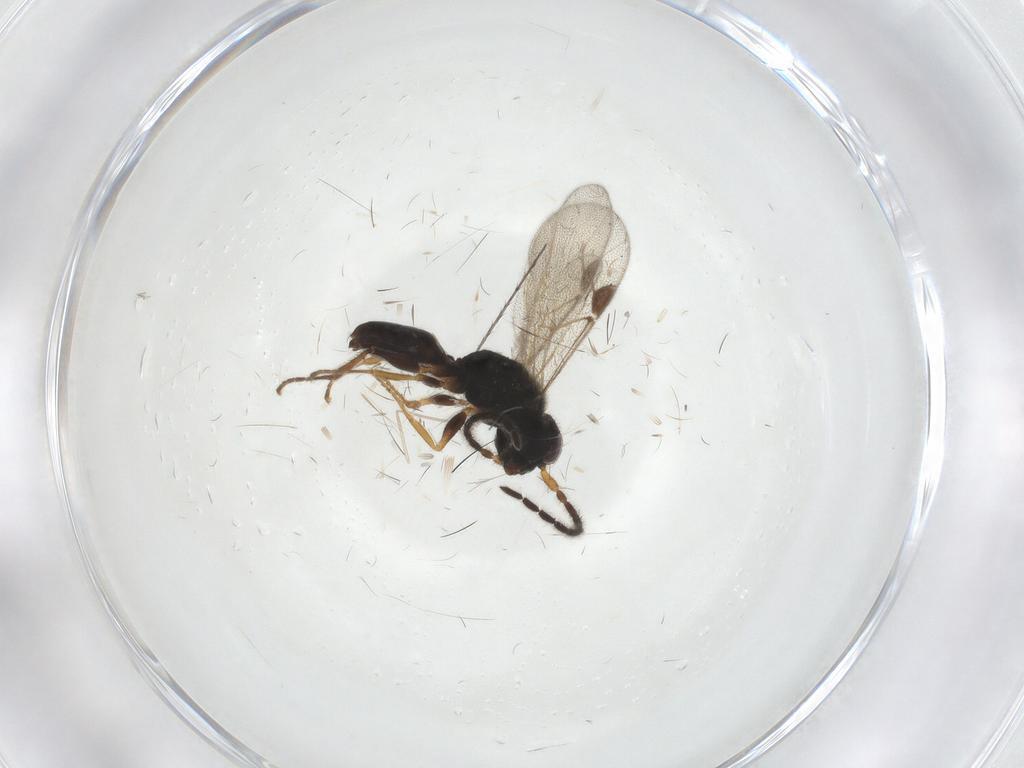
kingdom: Animalia
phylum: Arthropoda
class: Insecta
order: Hymenoptera
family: Dryinidae
